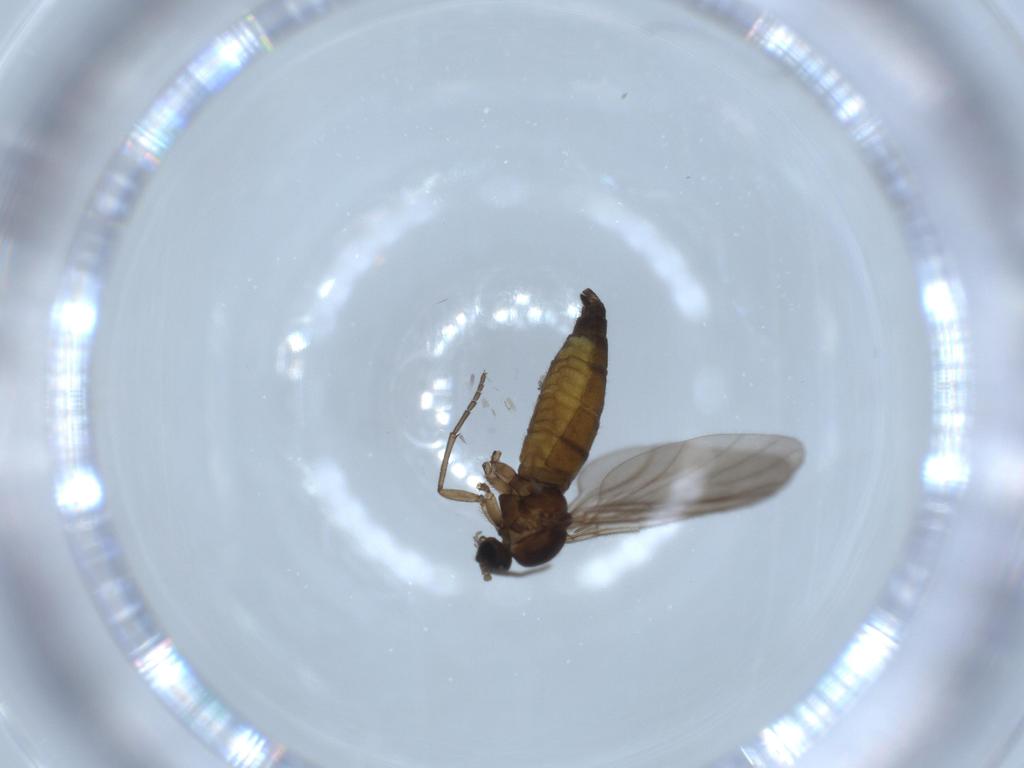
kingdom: Animalia
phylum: Arthropoda
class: Insecta
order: Diptera
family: Sciaridae
